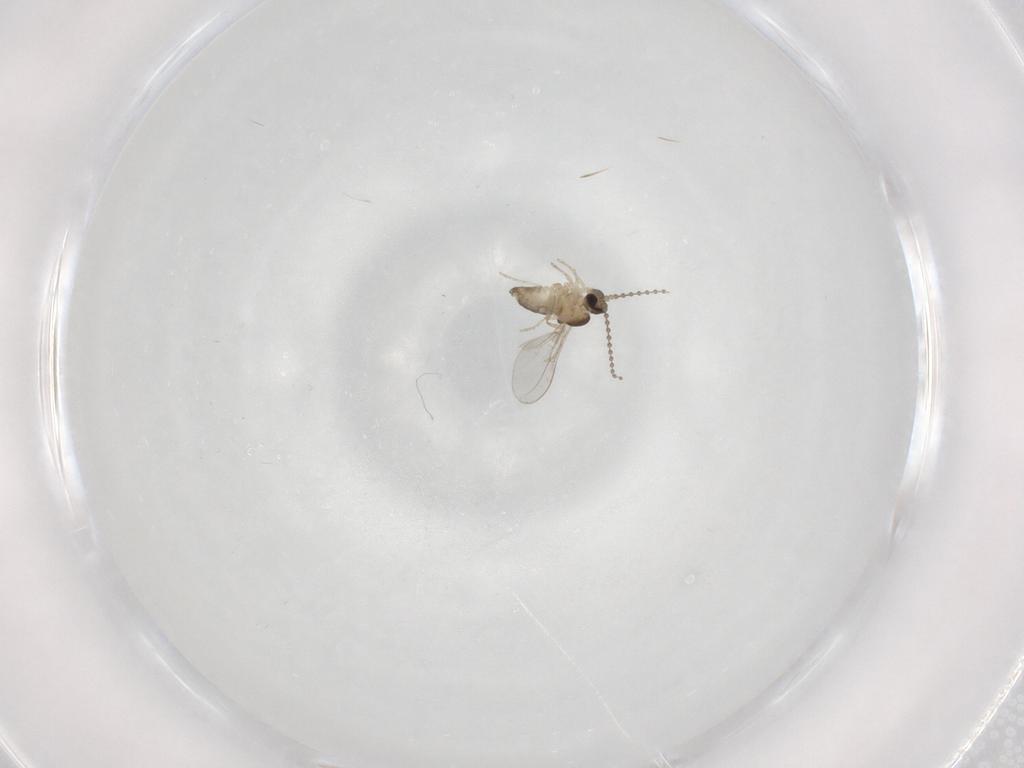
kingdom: Animalia
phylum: Arthropoda
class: Insecta
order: Diptera
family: Cecidomyiidae
